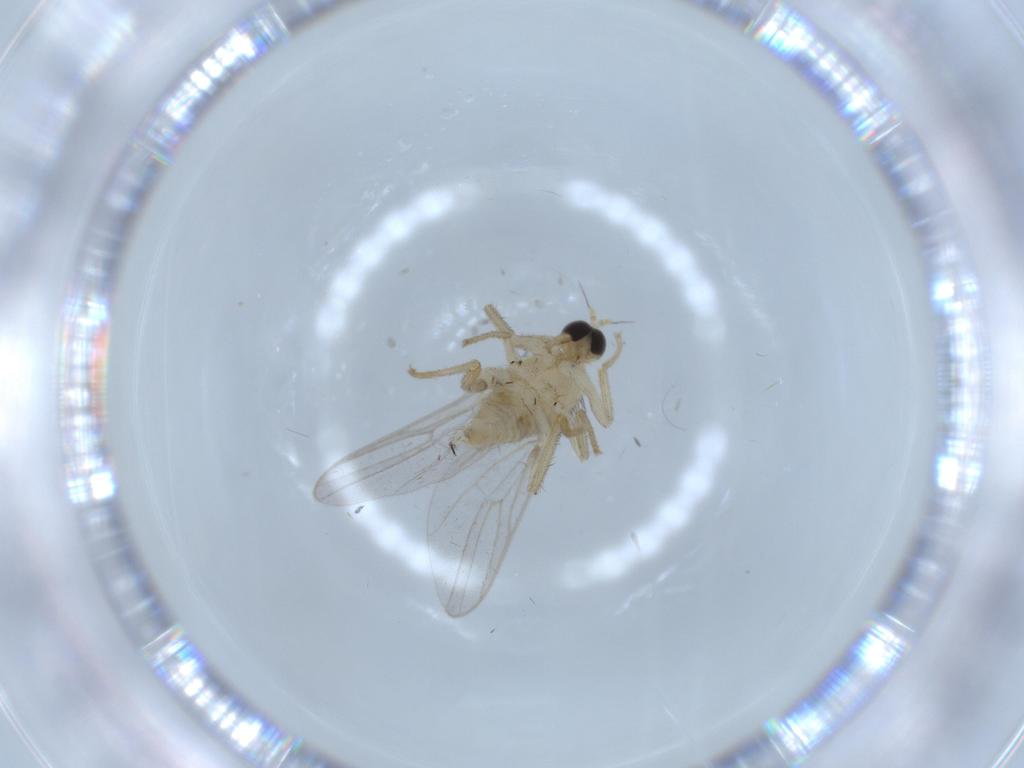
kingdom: Animalia
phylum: Arthropoda
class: Insecta
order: Diptera
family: Hybotidae
